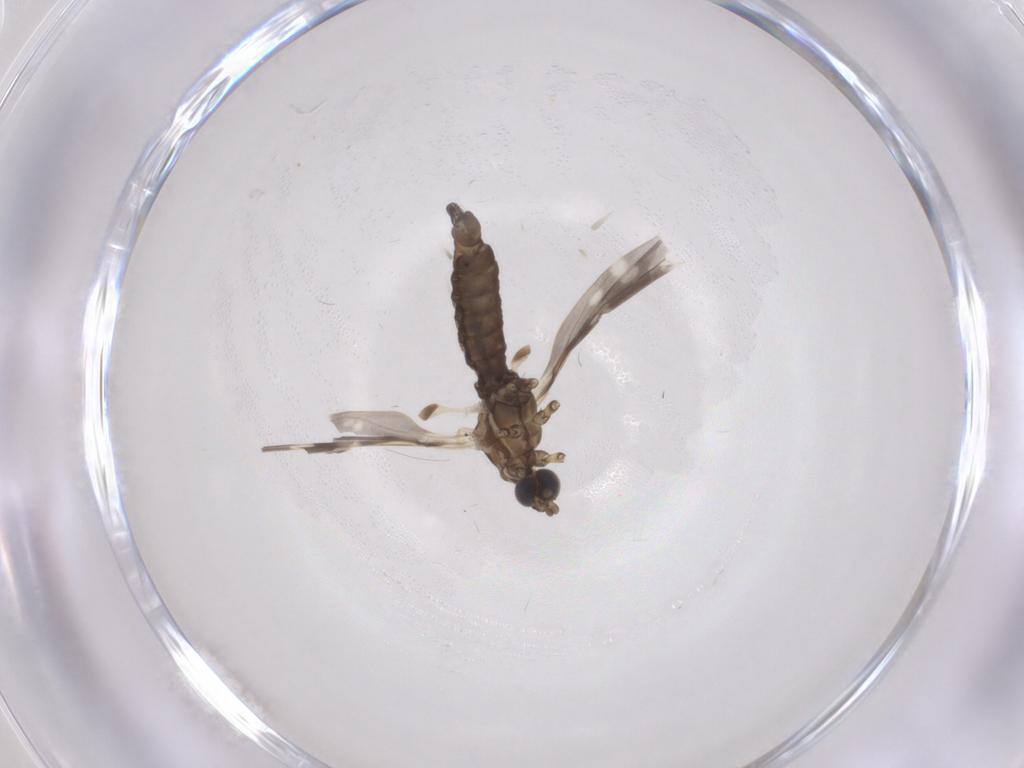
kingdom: Animalia
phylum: Arthropoda
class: Insecta
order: Diptera
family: Limoniidae
